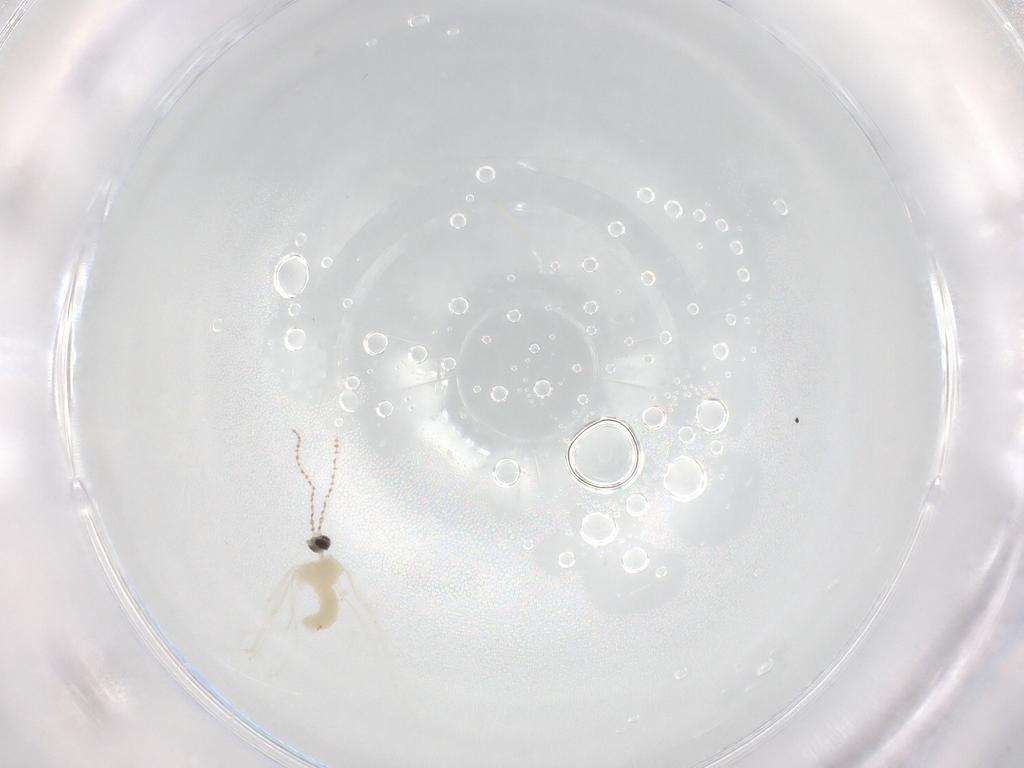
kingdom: Animalia
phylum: Arthropoda
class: Insecta
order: Diptera
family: Cecidomyiidae
